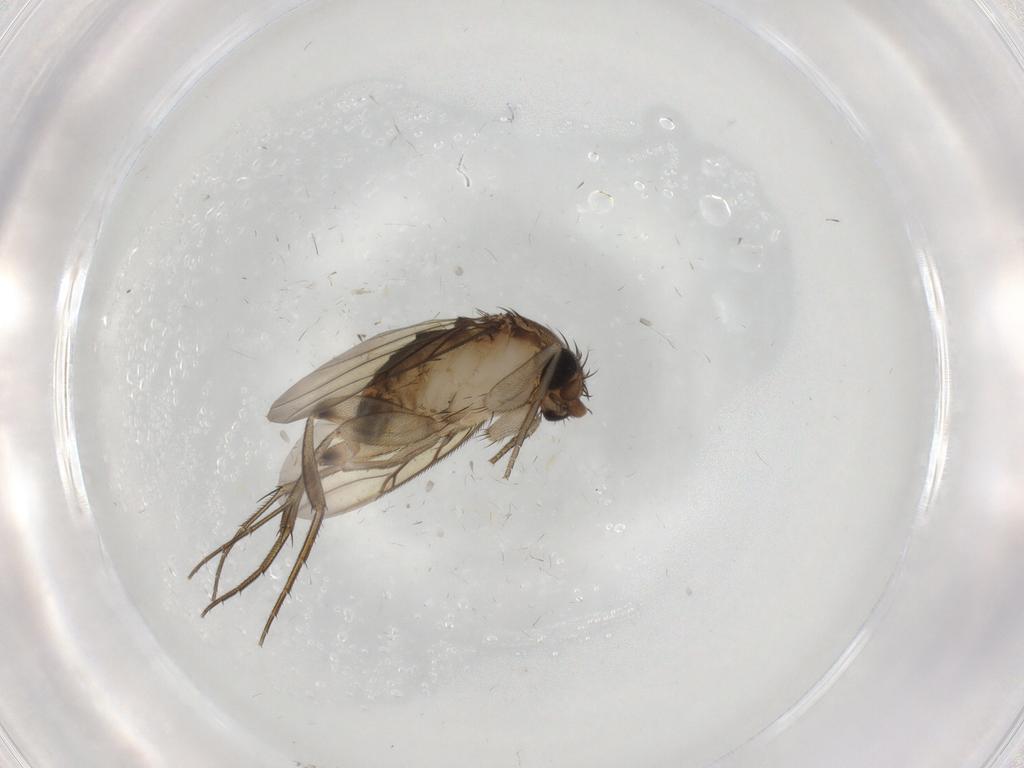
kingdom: Animalia
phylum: Arthropoda
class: Insecta
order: Diptera
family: Phoridae
